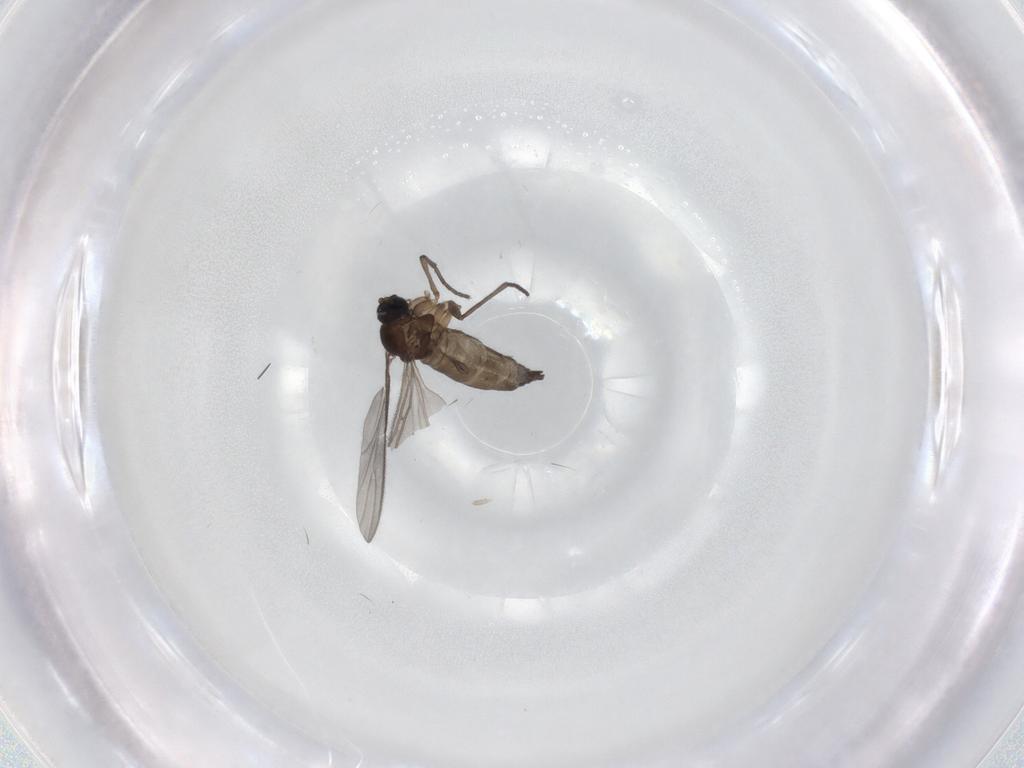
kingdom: Animalia
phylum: Arthropoda
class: Insecta
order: Diptera
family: Sciaridae
